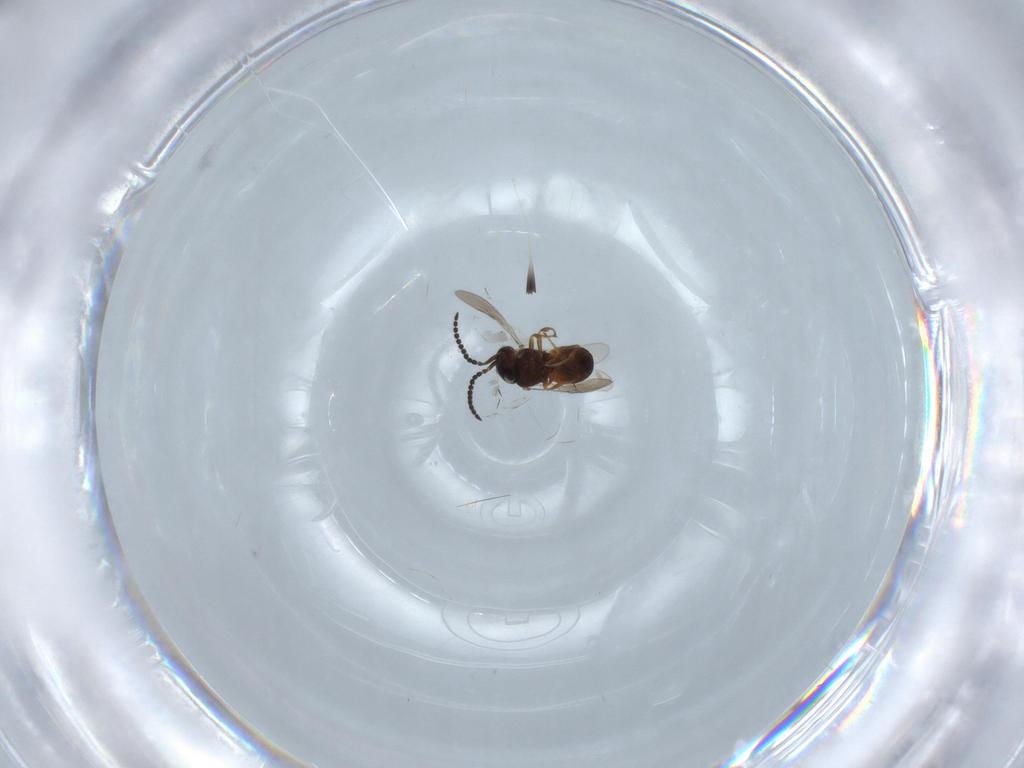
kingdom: Animalia
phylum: Arthropoda
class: Insecta
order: Hymenoptera
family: Scelionidae
